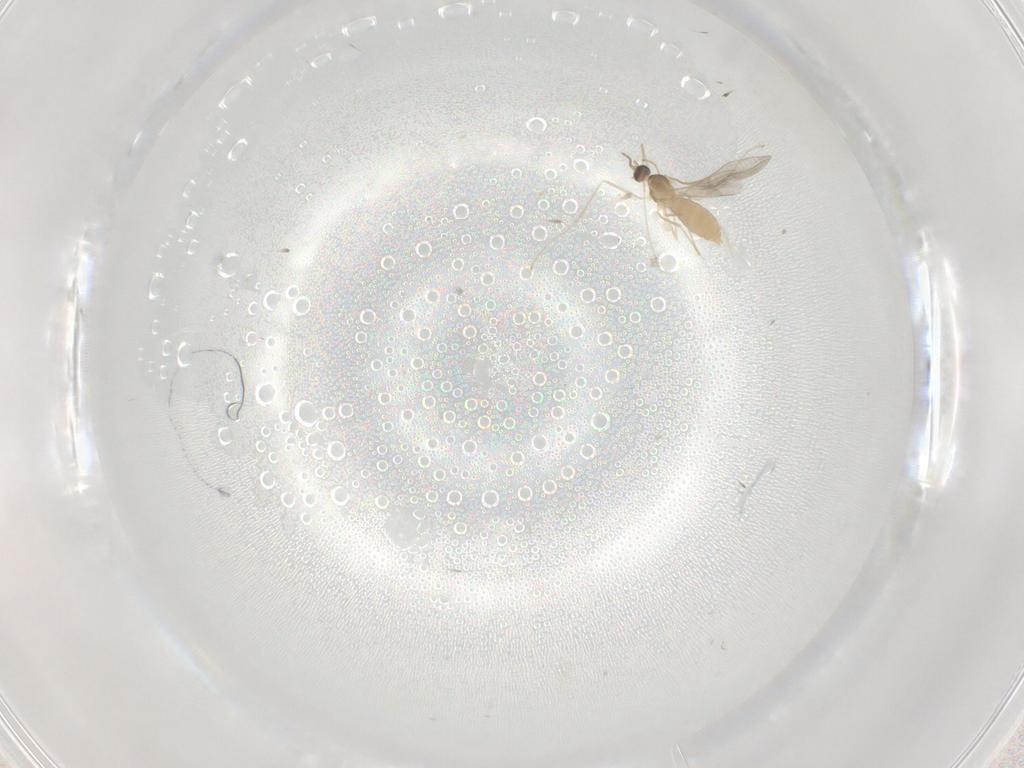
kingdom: Animalia
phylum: Arthropoda
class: Insecta
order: Diptera
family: Cecidomyiidae
